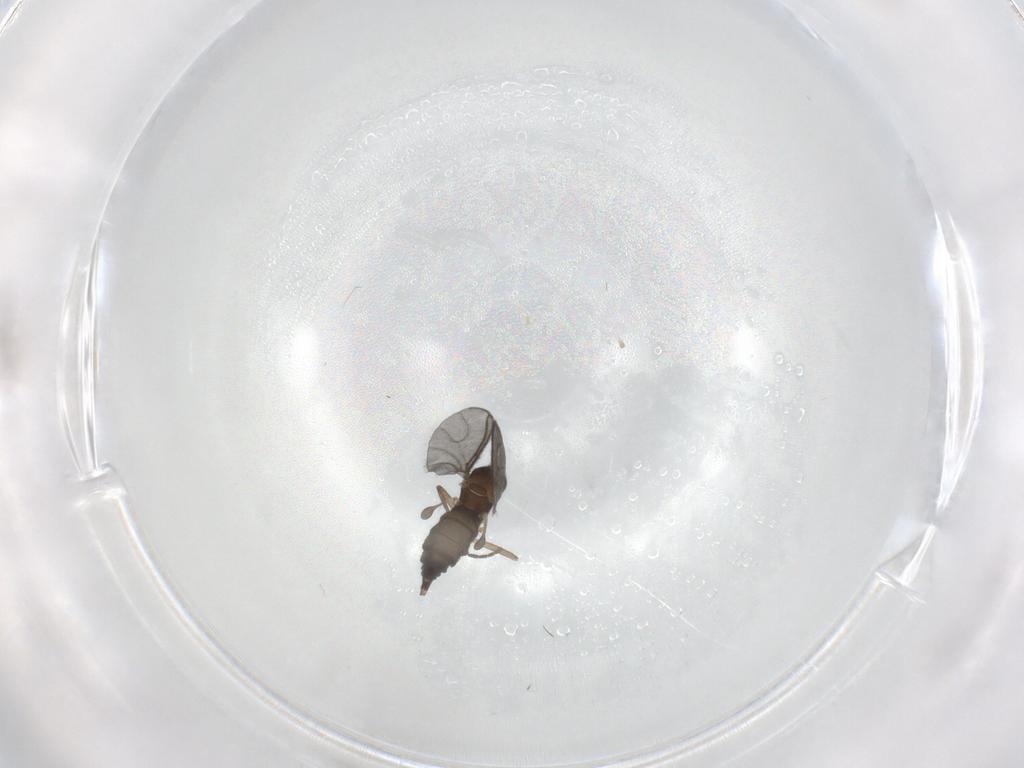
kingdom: Animalia
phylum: Arthropoda
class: Insecta
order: Diptera
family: Sciaridae
